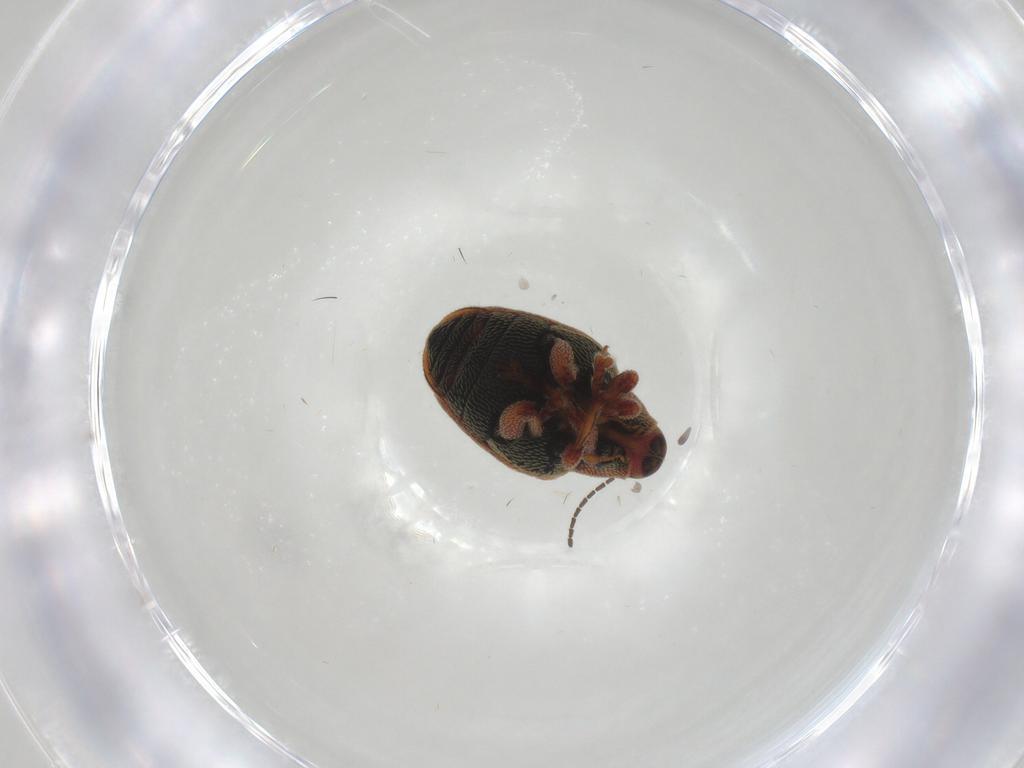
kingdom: Animalia
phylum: Arthropoda
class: Insecta
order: Coleoptera
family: Ptilodactylidae
